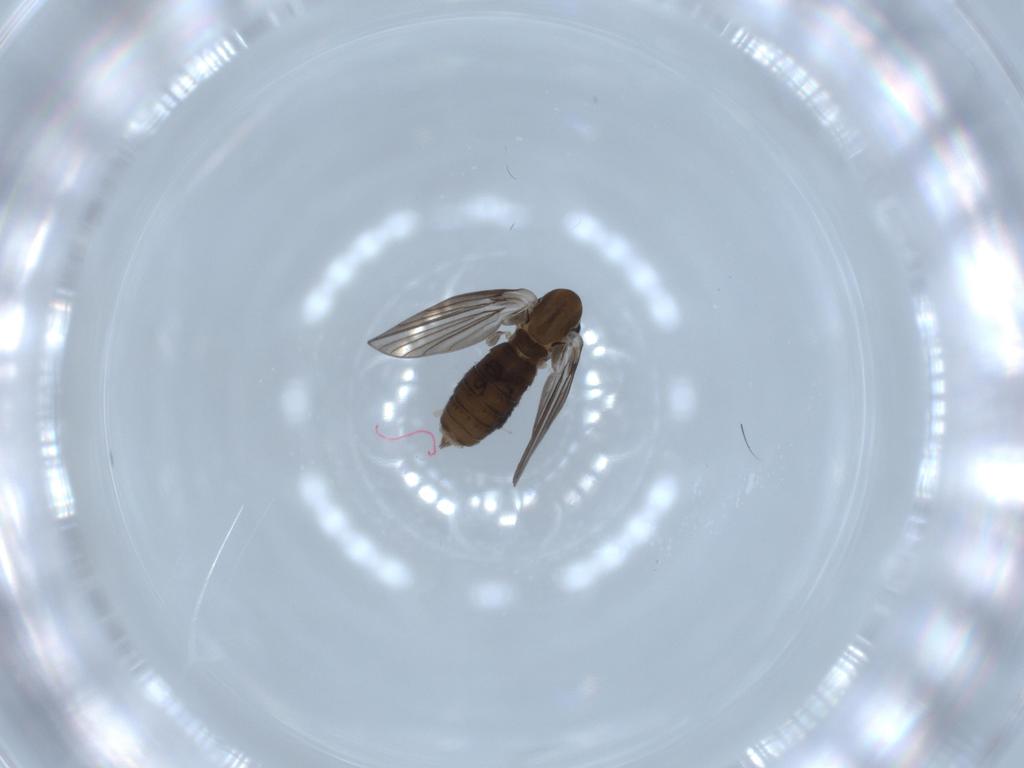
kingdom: Animalia
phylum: Arthropoda
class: Insecta
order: Diptera
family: Psychodidae
